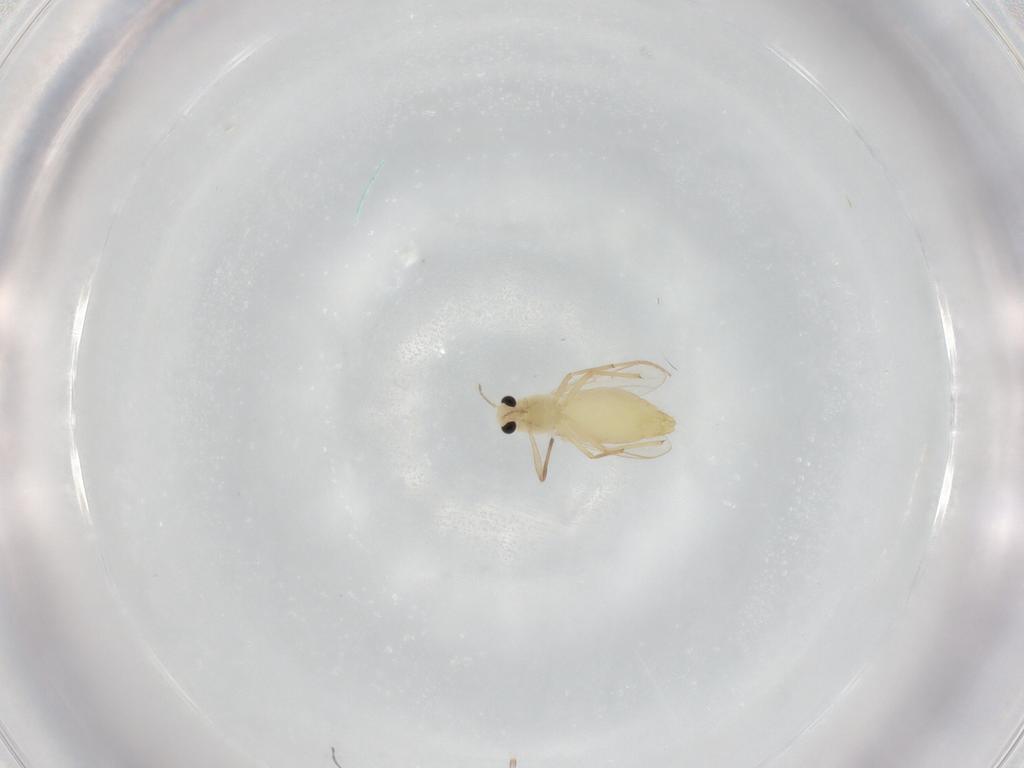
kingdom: Animalia
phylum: Arthropoda
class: Insecta
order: Diptera
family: Chironomidae
